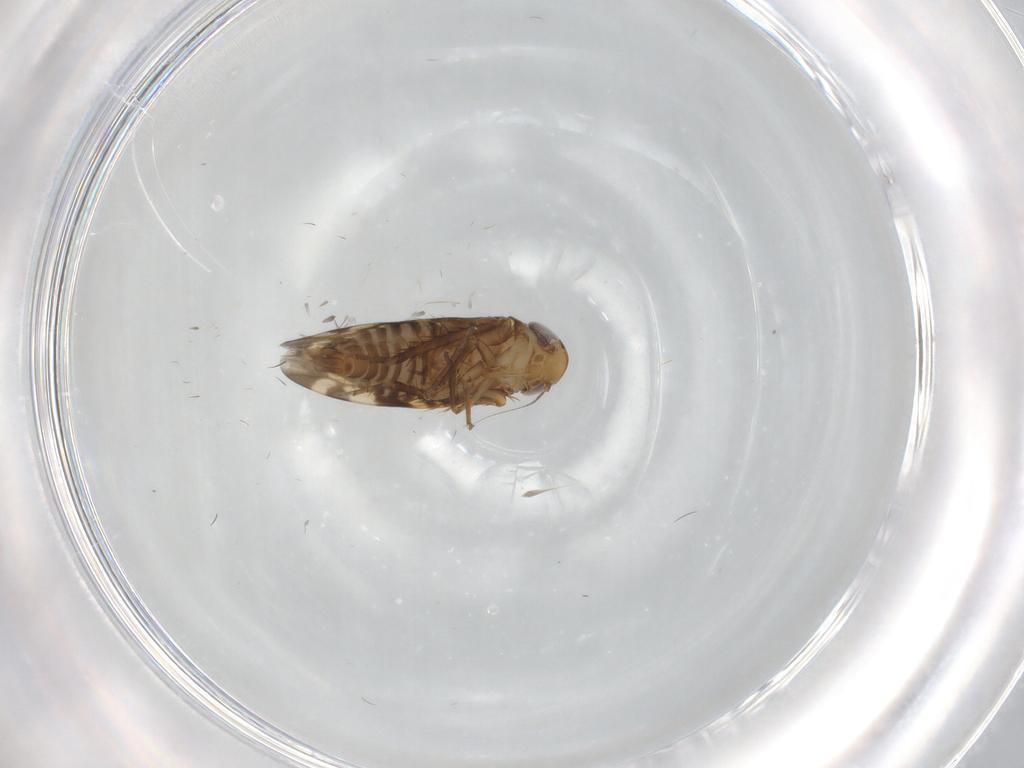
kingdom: Animalia
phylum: Arthropoda
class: Insecta
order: Hemiptera
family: Cicadellidae
